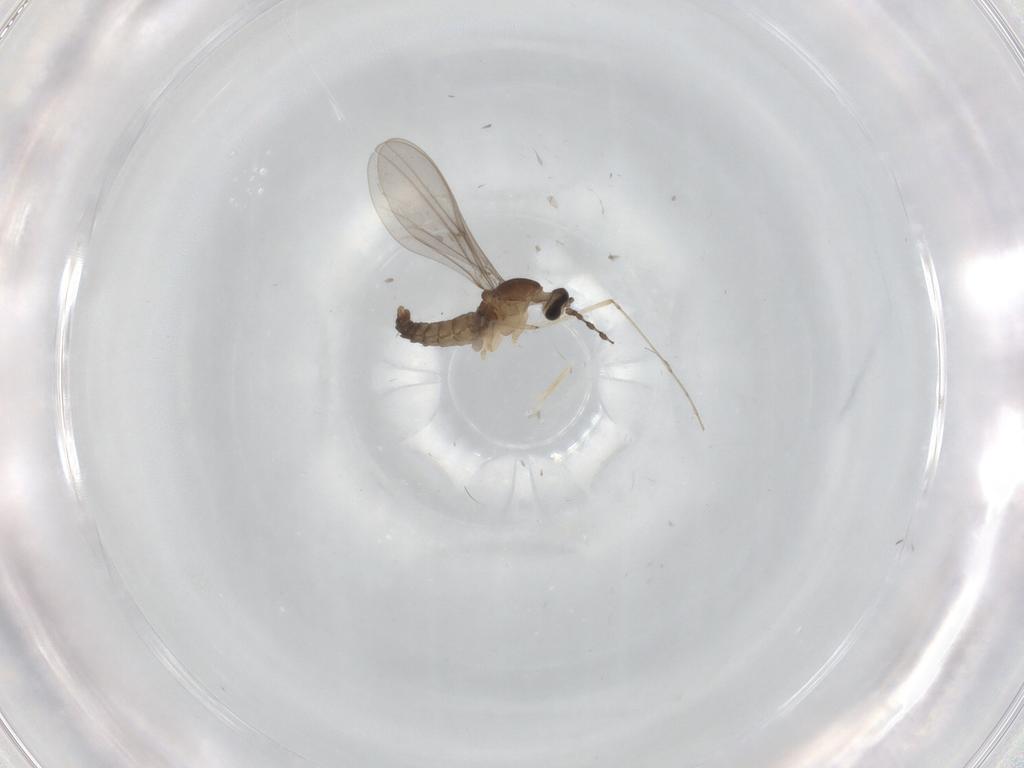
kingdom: Animalia
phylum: Arthropoda
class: Insecta
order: Diptera
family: Cecidomyiidae
